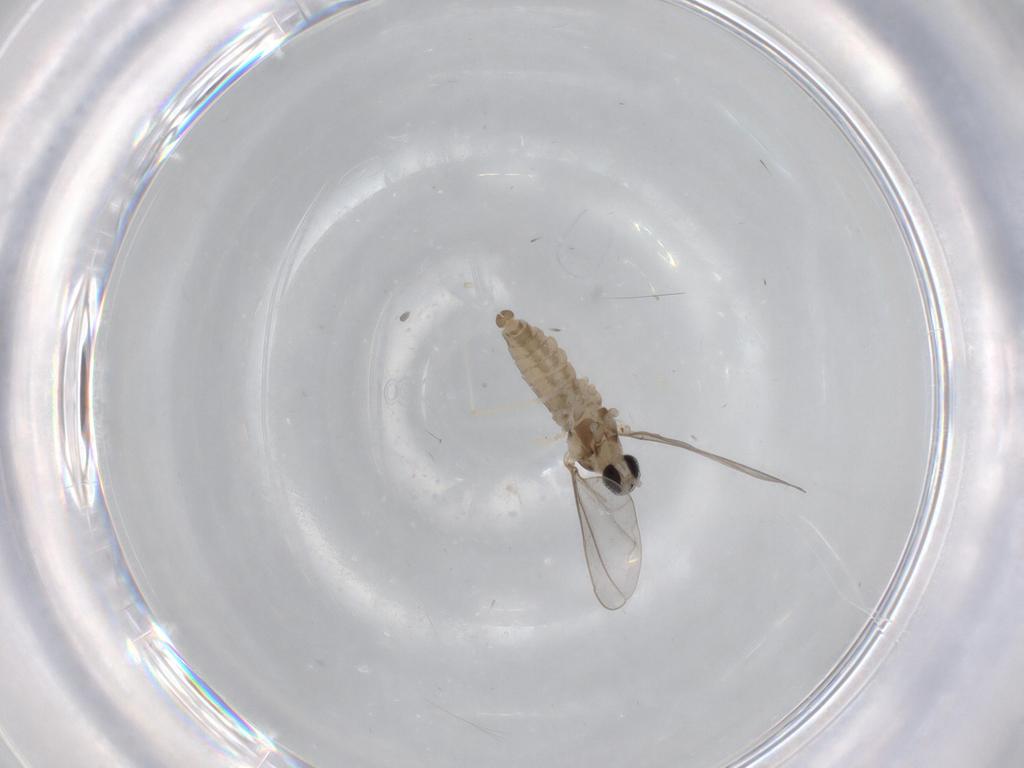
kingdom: Animalia
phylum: Arthropoda
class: Insecta
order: Diptera
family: Cecidomyiidae
